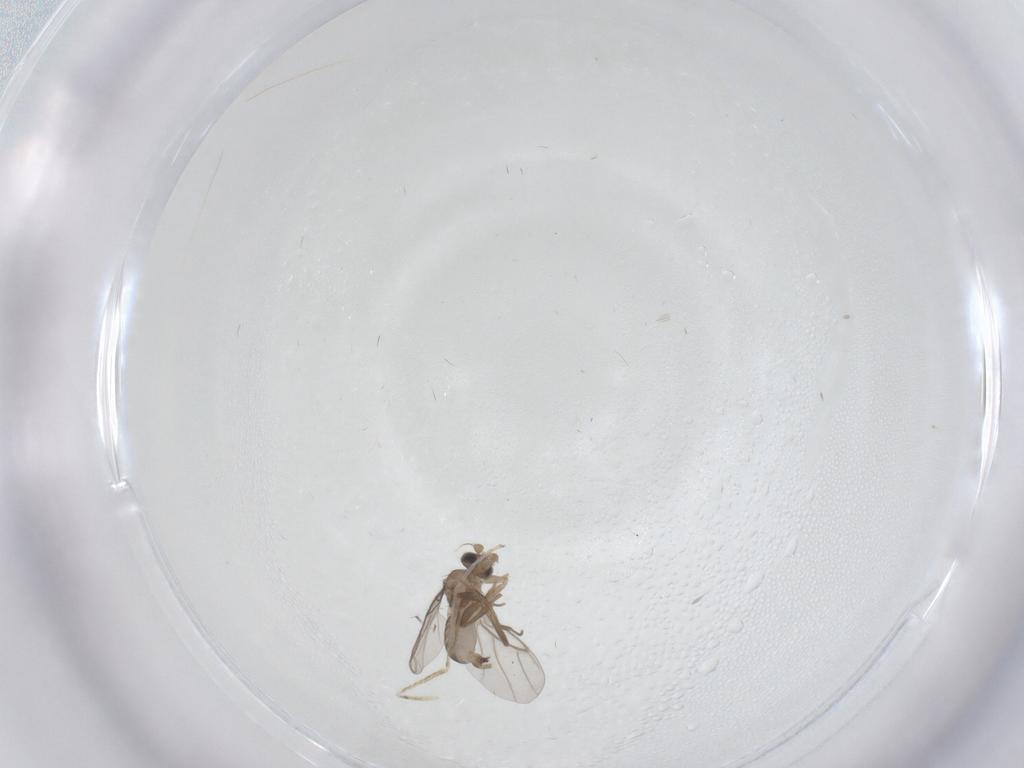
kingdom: Animalia
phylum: Arthropoda
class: Insecta
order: Diptera
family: Cecidomyiidae
